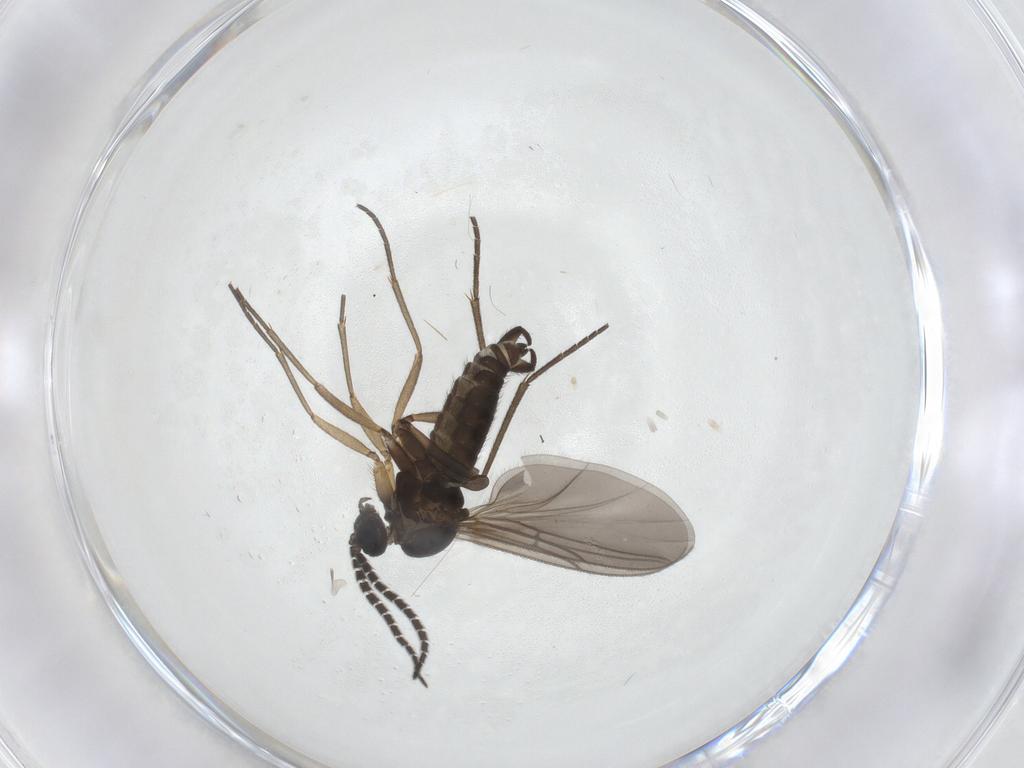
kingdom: Animalia
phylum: Arthropoda
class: Insecta
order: Diptera
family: Sciaridae
